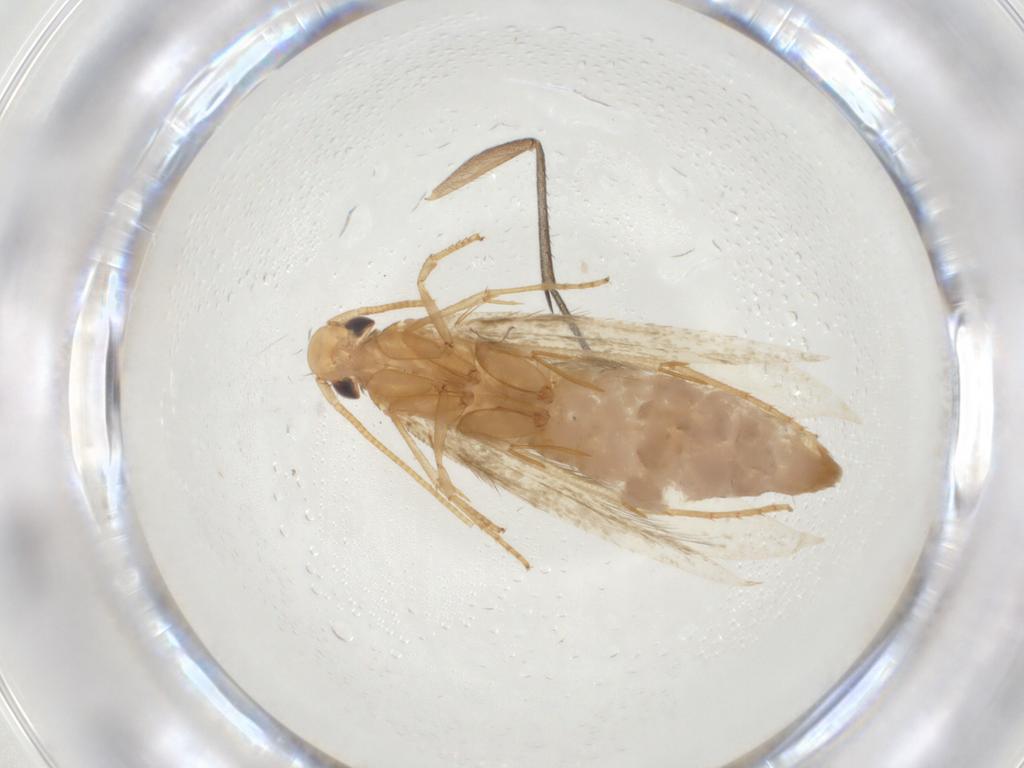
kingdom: Animalia
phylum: Arthropoda
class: Insecta
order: Lepidoptera
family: Tineidae
